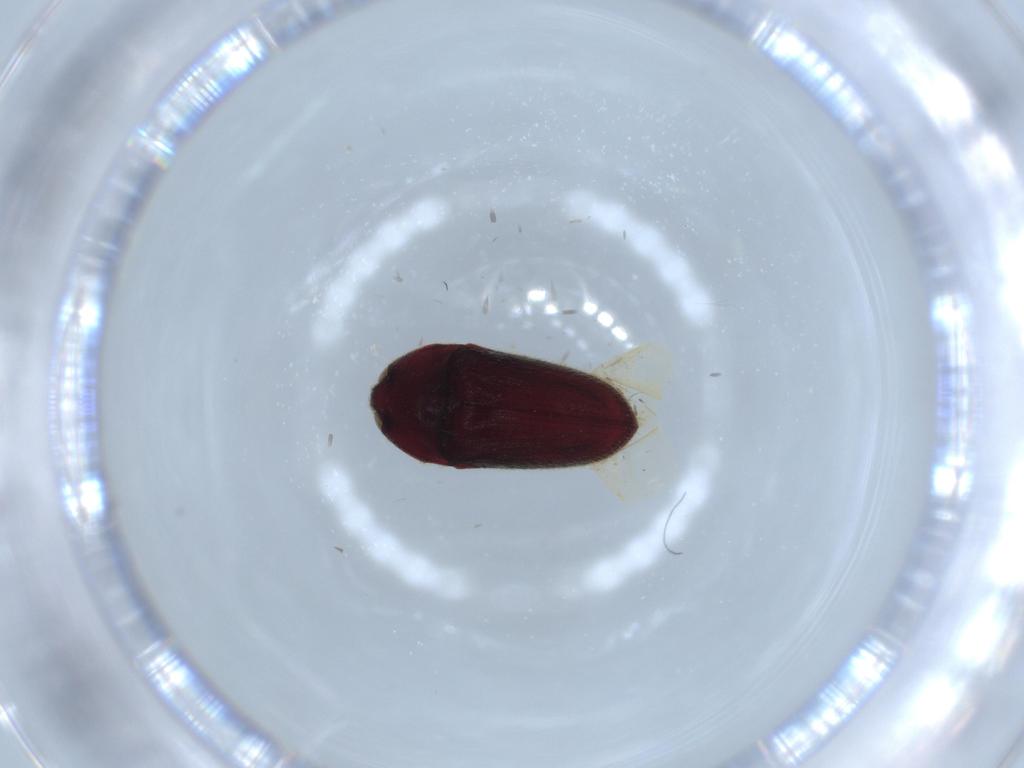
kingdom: Animalia
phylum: Arthropoda
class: Insecta
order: Coleoptera
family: Throscidae
